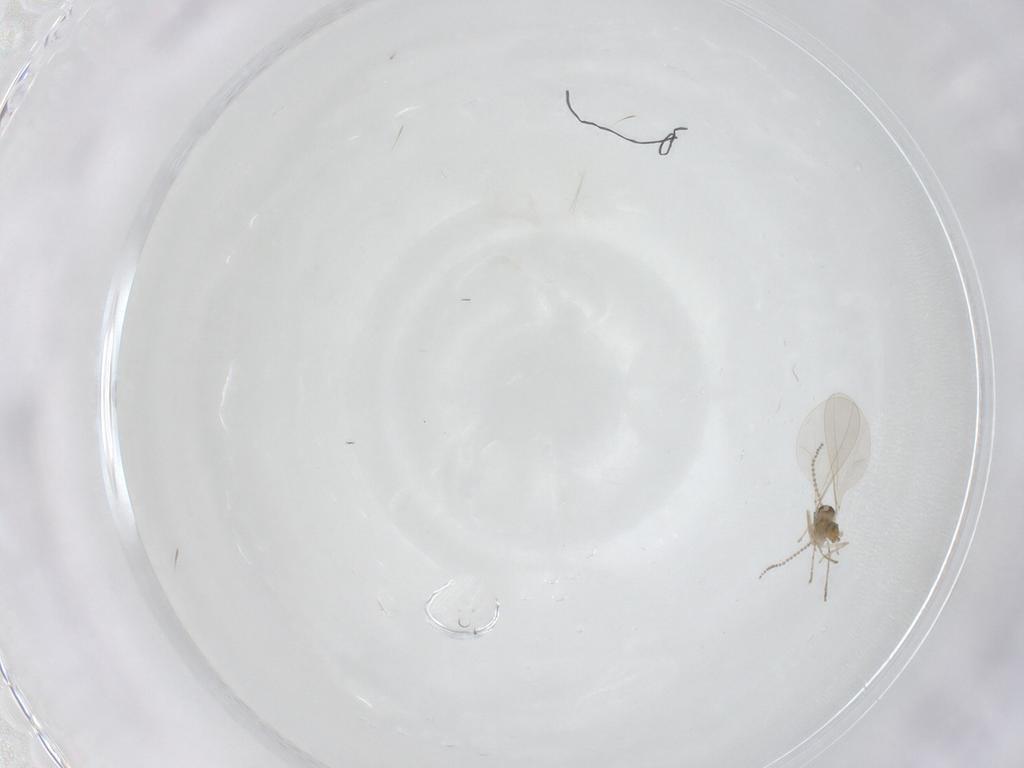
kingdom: Animalia
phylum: Arthropoda
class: Insecta
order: Diptera
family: Cecidomyiidae
